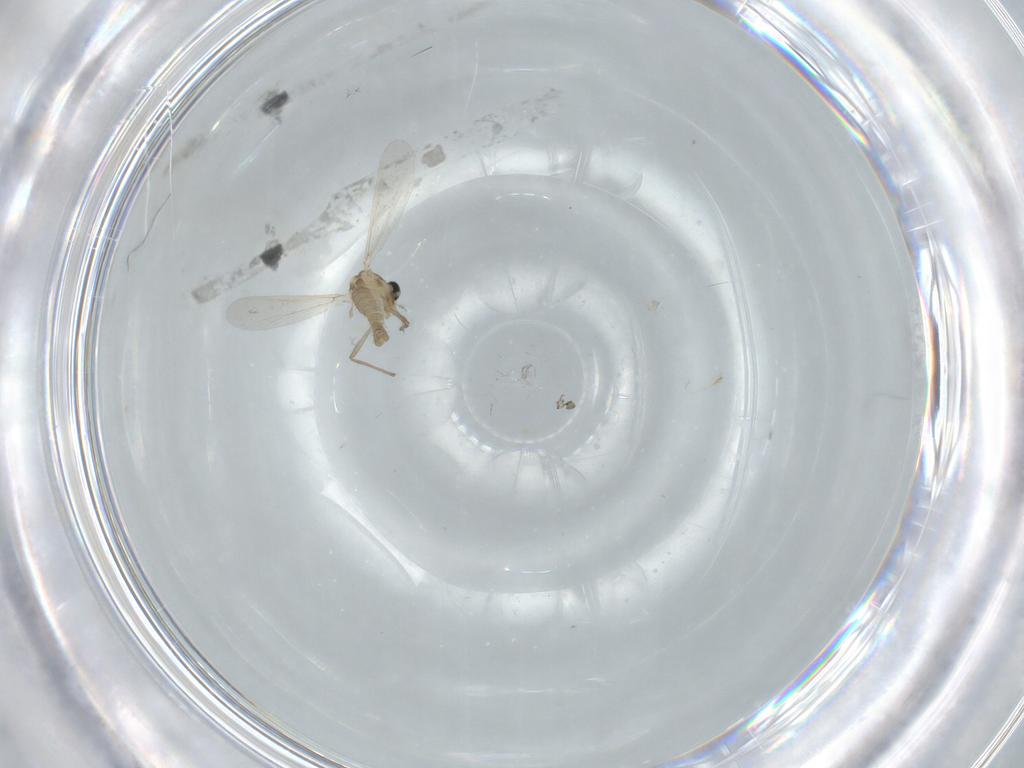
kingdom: Animalia
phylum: Arthropoda
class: Insecta
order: Diptera
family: Chironomidae
